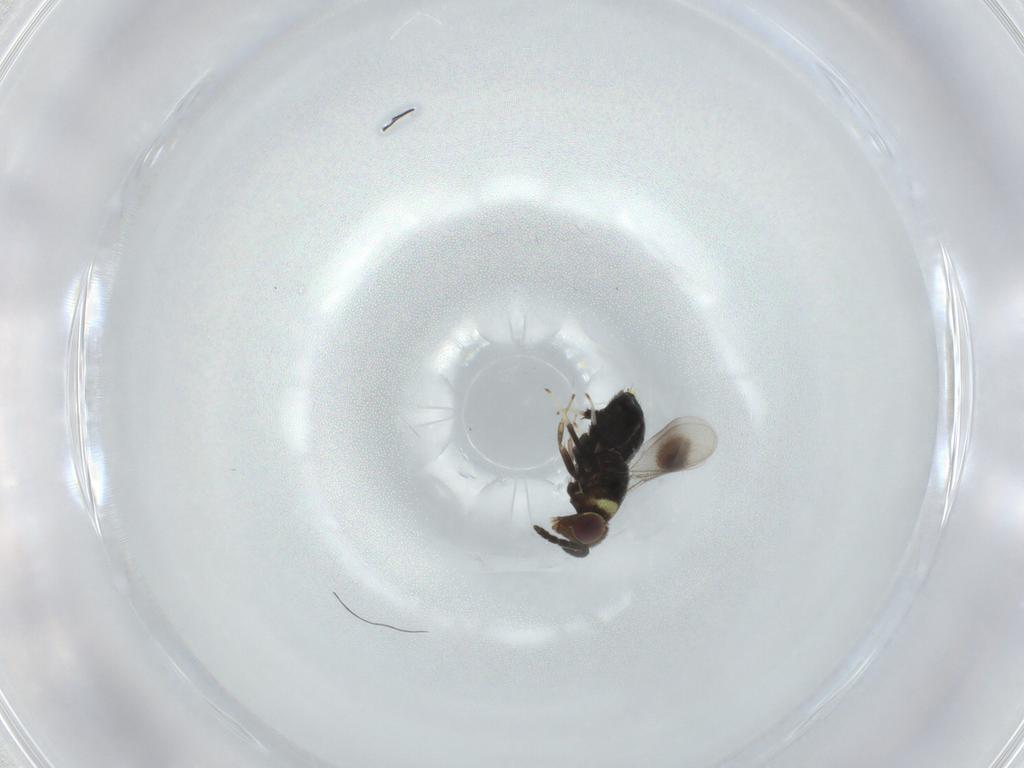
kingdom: Animalia
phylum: Arthropoda
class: Insecta
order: Hymenoptera
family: Aphelinidae
